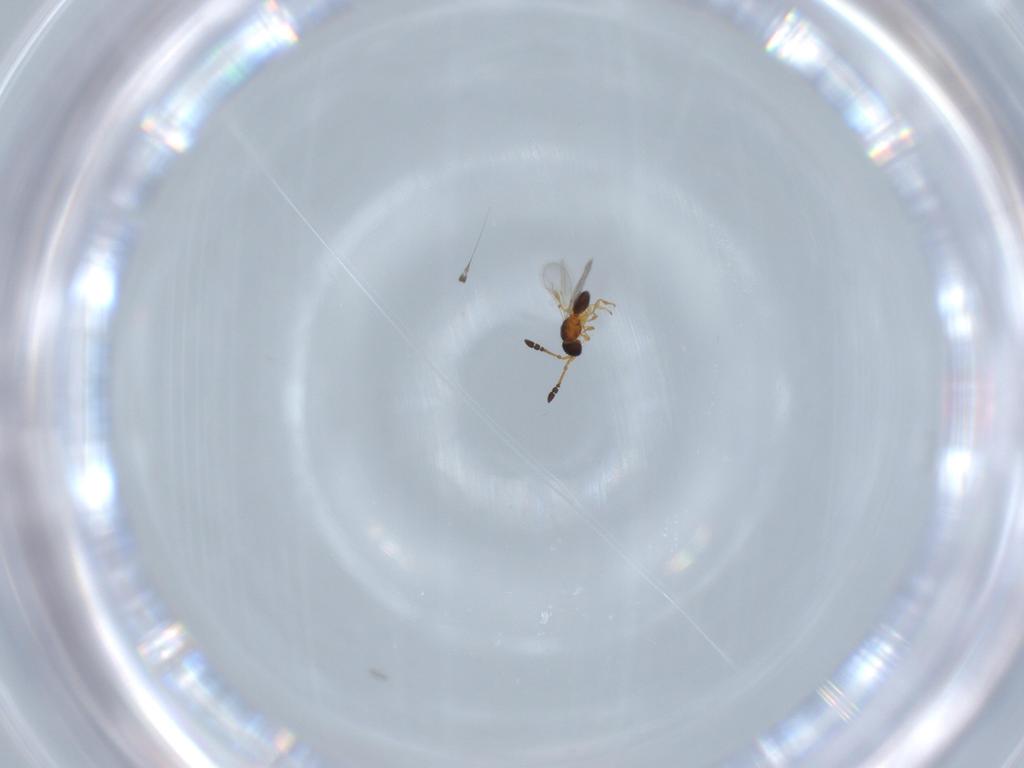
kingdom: Animalia
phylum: Arthropoda
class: Insecta
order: Hymenoptera
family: Diapriidae
